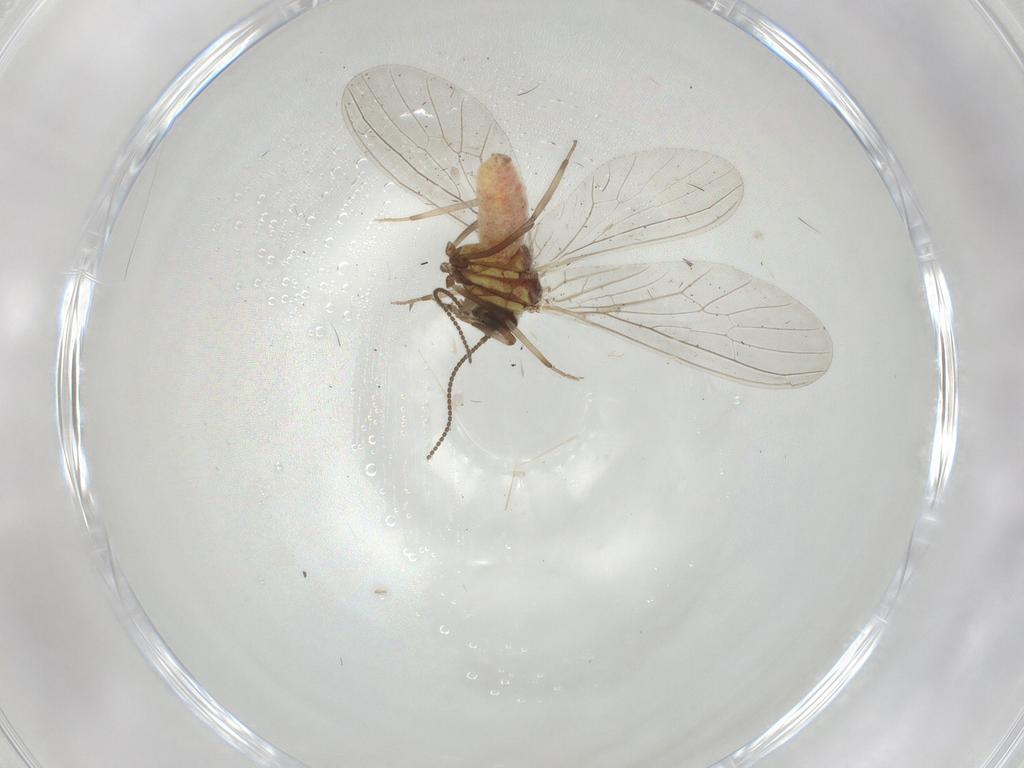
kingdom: Animalia
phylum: Arthropoda
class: Insecta
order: Neuroptera
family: Coniopterygidae
